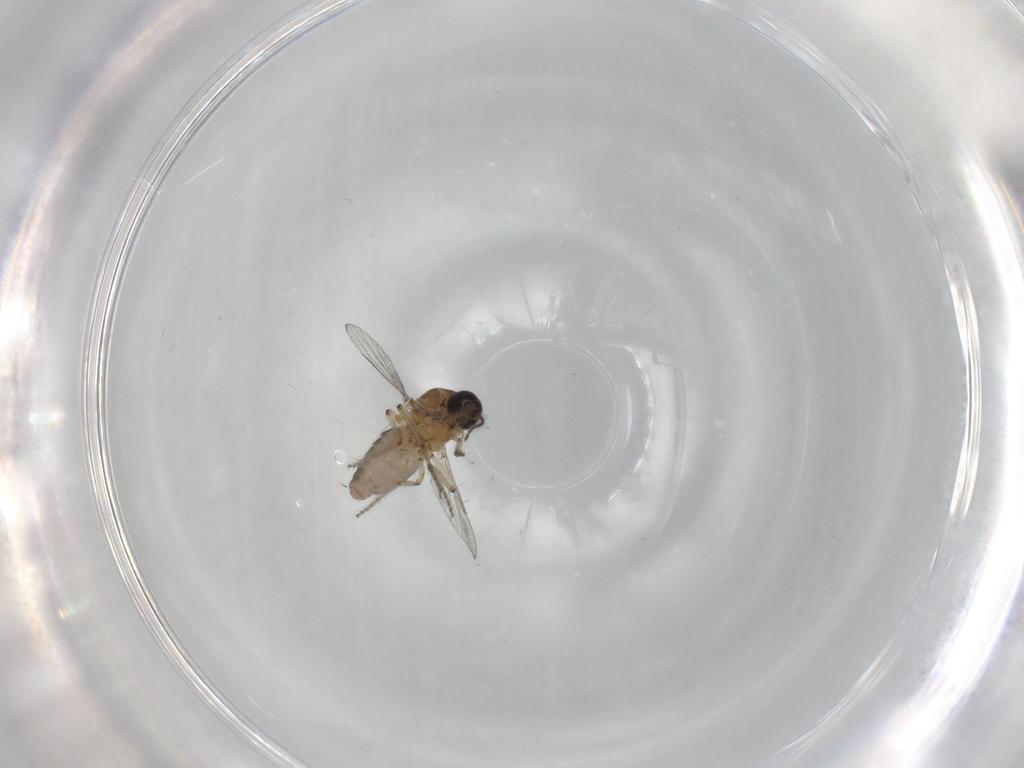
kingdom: Animalia
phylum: Arthropoda
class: Insecta
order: Diptera
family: Ceratopogonidae
